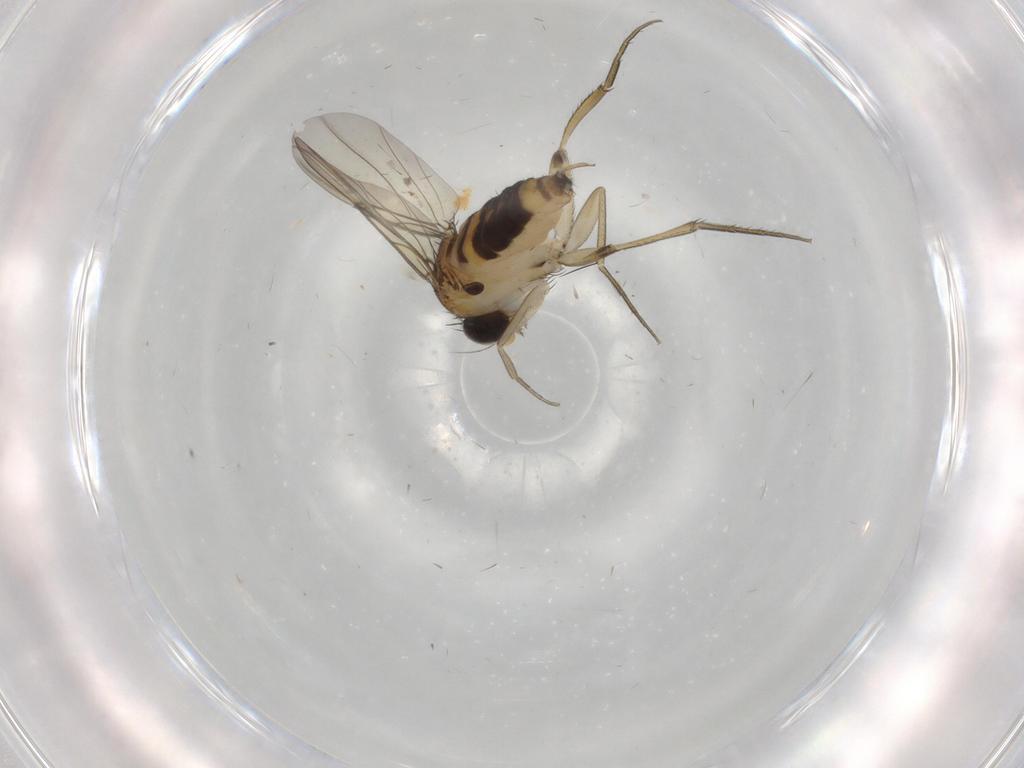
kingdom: Animalia
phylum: Arthropoda
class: Insecta
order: Diptera
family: Phoridae
